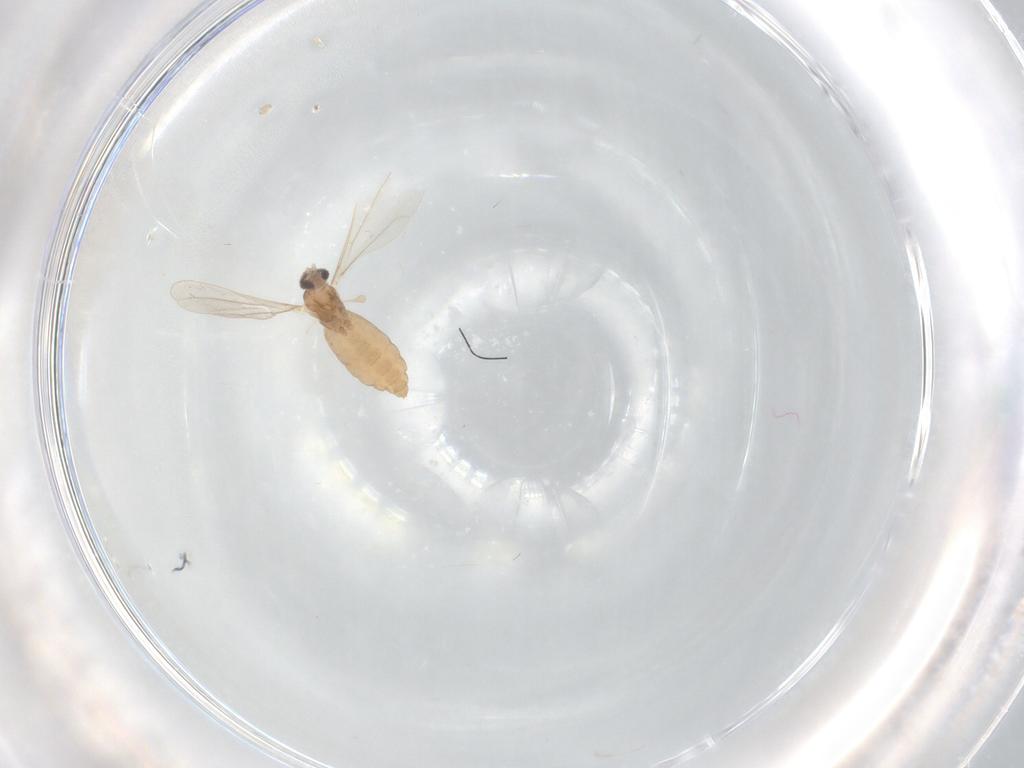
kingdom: Animalia
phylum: Arthropoda
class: Insecta
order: Diptera
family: Cecidomyiidae
